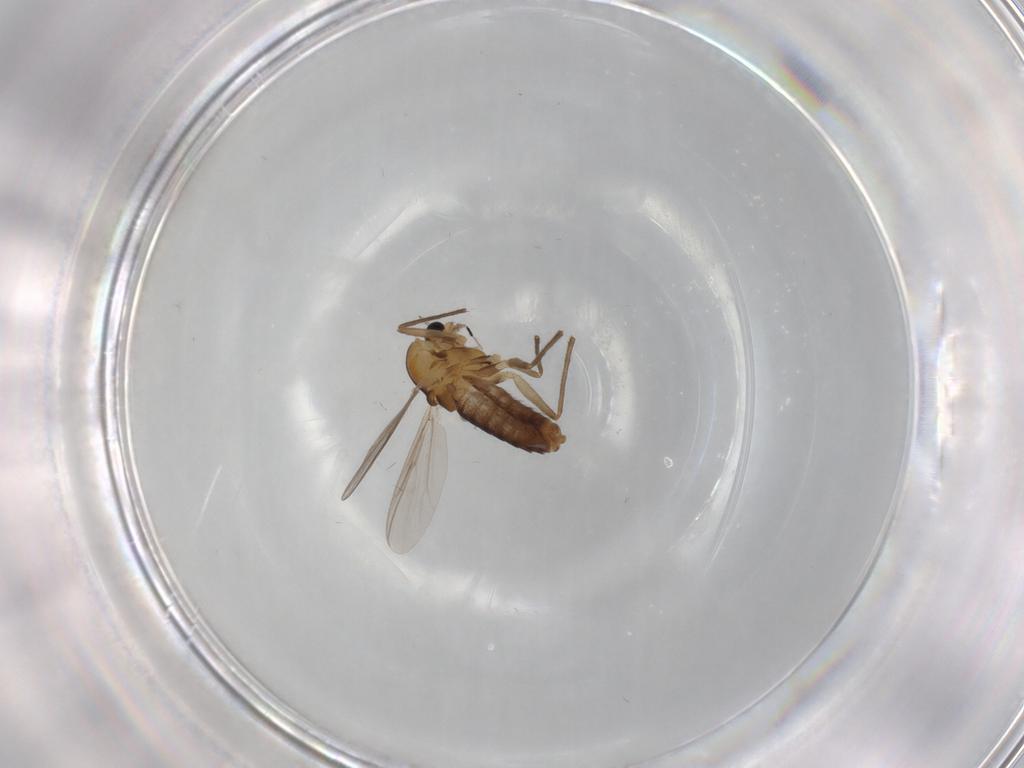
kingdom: Animalia
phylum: Arthropoda
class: Insecta
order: Diptera
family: Chironomidae
